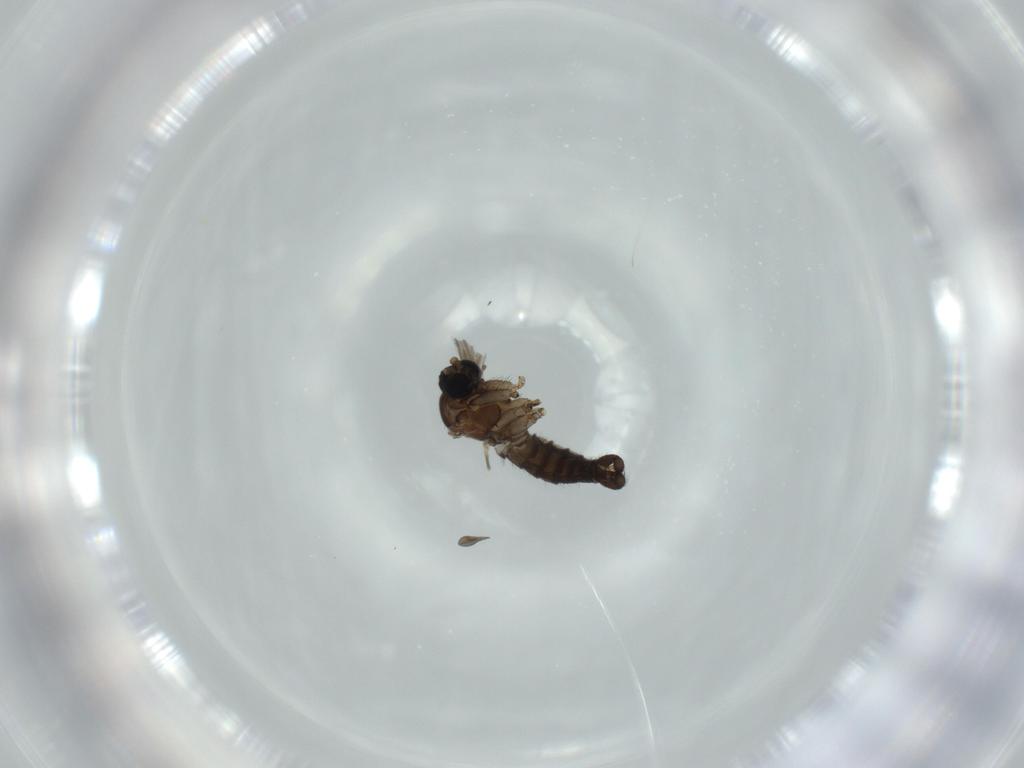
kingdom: Animalia
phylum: Arthropoda
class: Insecta
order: Diptera
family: Sciaridae
